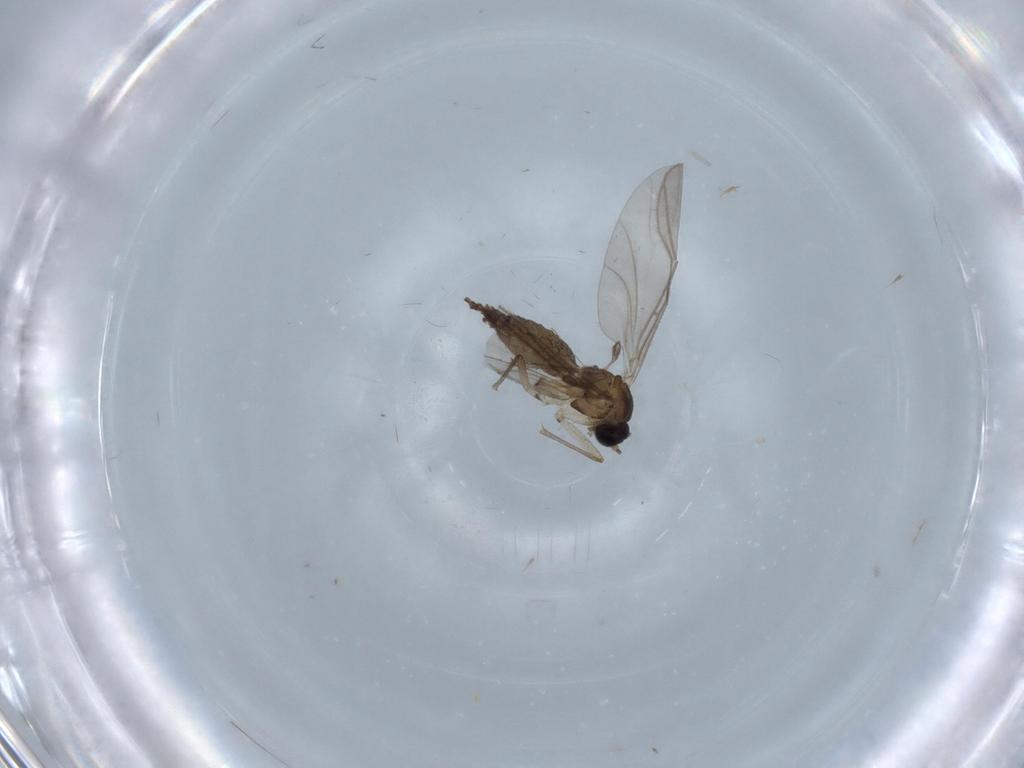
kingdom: Animalia
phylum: Arthropoda
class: Insecta
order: Diptera
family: Sciaridae
